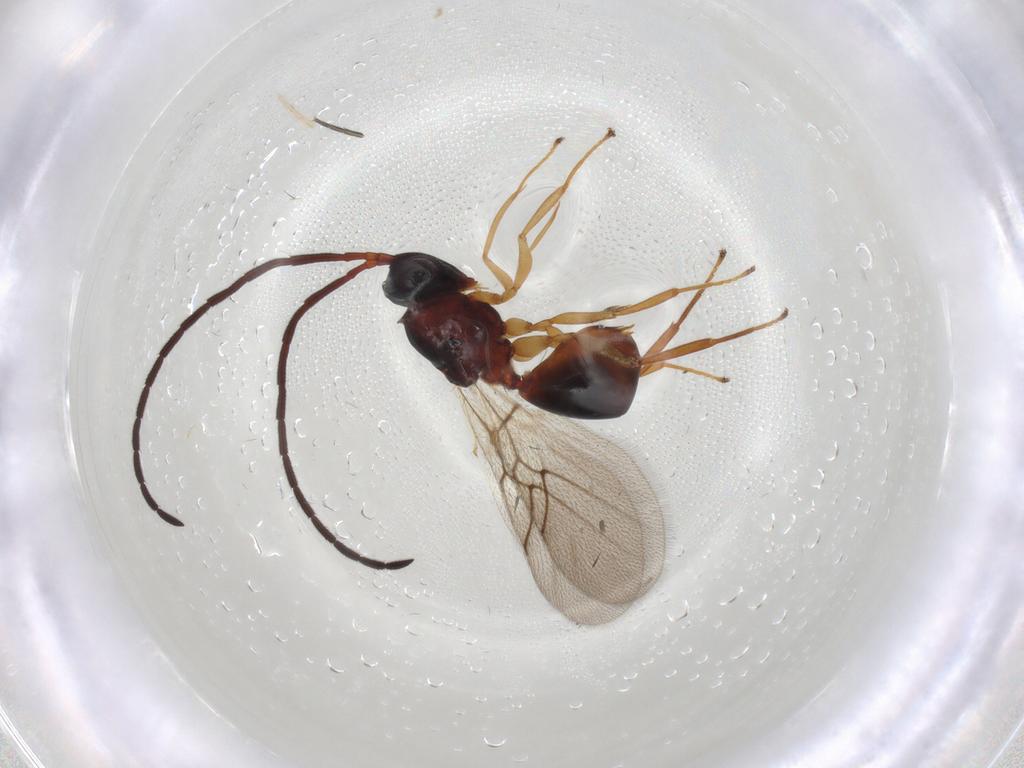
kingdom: Animalia
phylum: Arthropoda
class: Insecta
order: Hymenoptera
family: Figitidae
